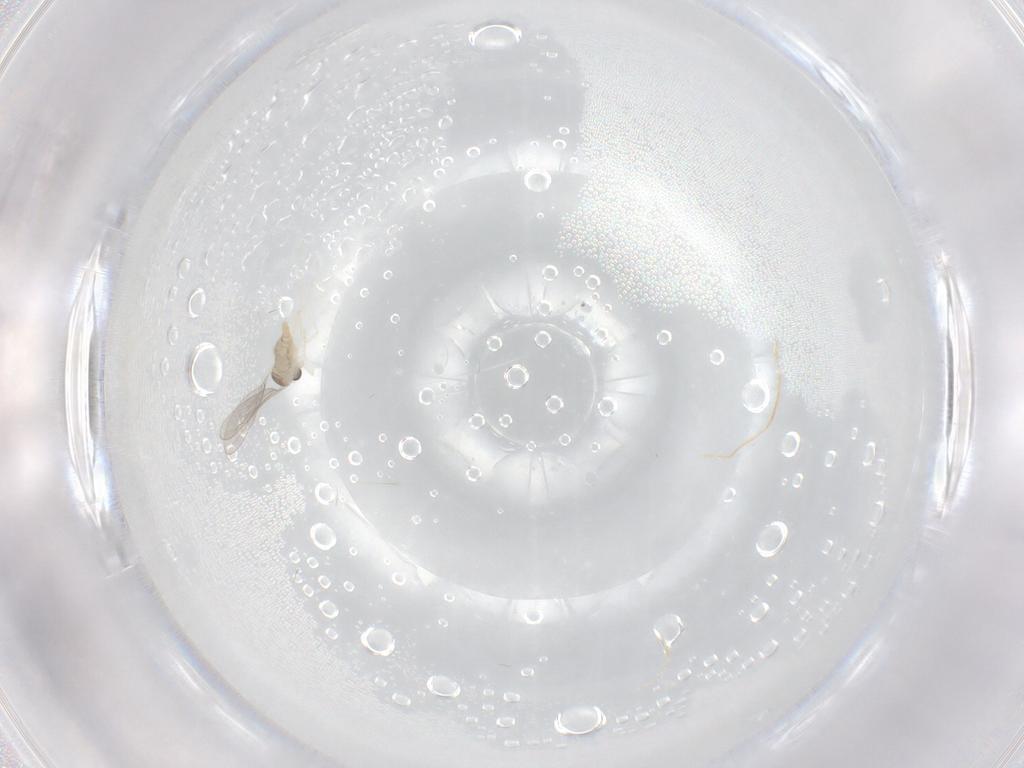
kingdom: Animalia
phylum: Arthropoda
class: Insecta
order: Diptera
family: Cecidomyiidae
